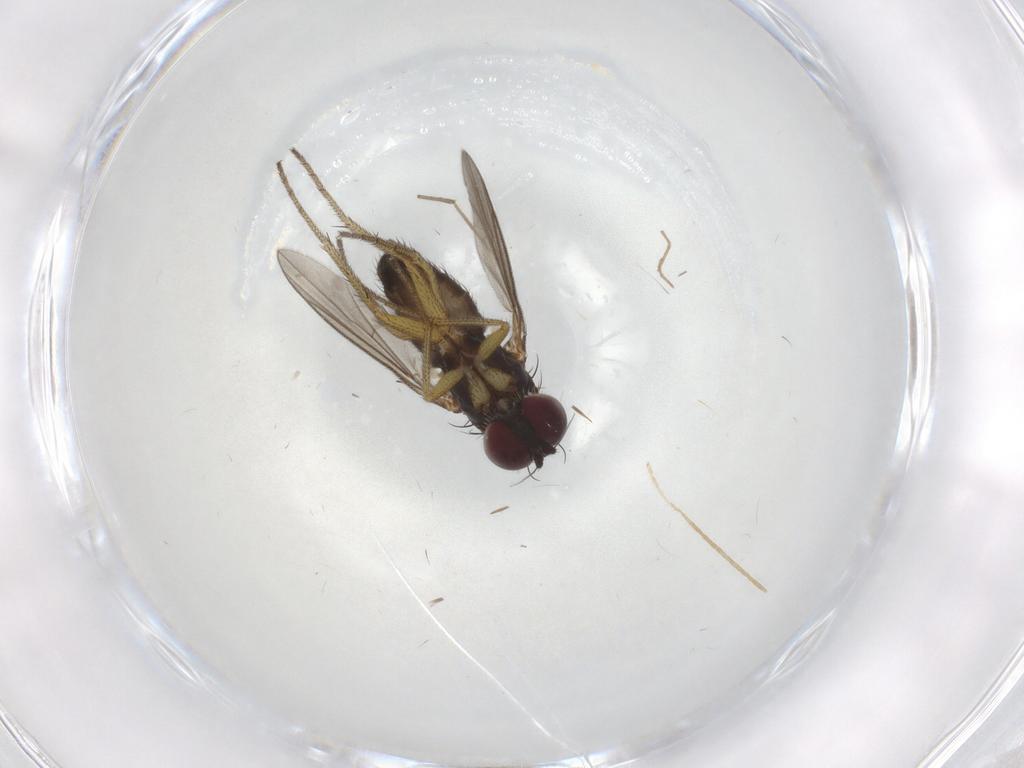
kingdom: Animalia
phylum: Arthropoda
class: Insecta
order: Diptera
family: Dolichopodidae
